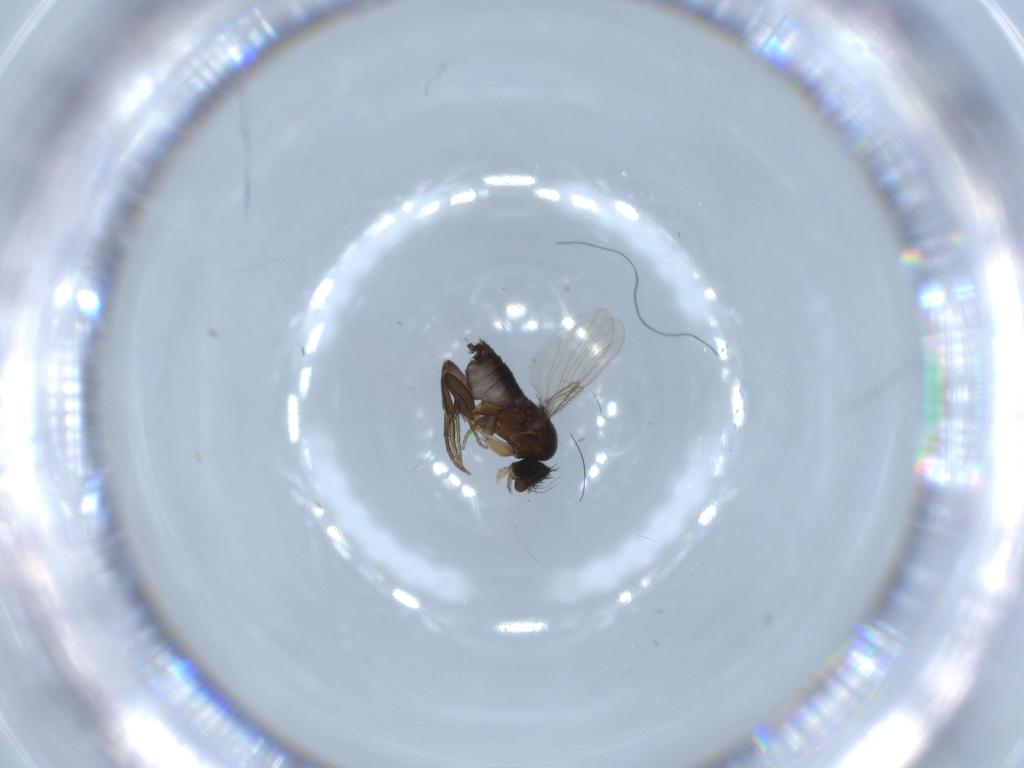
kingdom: Animalia
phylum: Arthropoda
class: Insecta
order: Diptera
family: Phoridae
